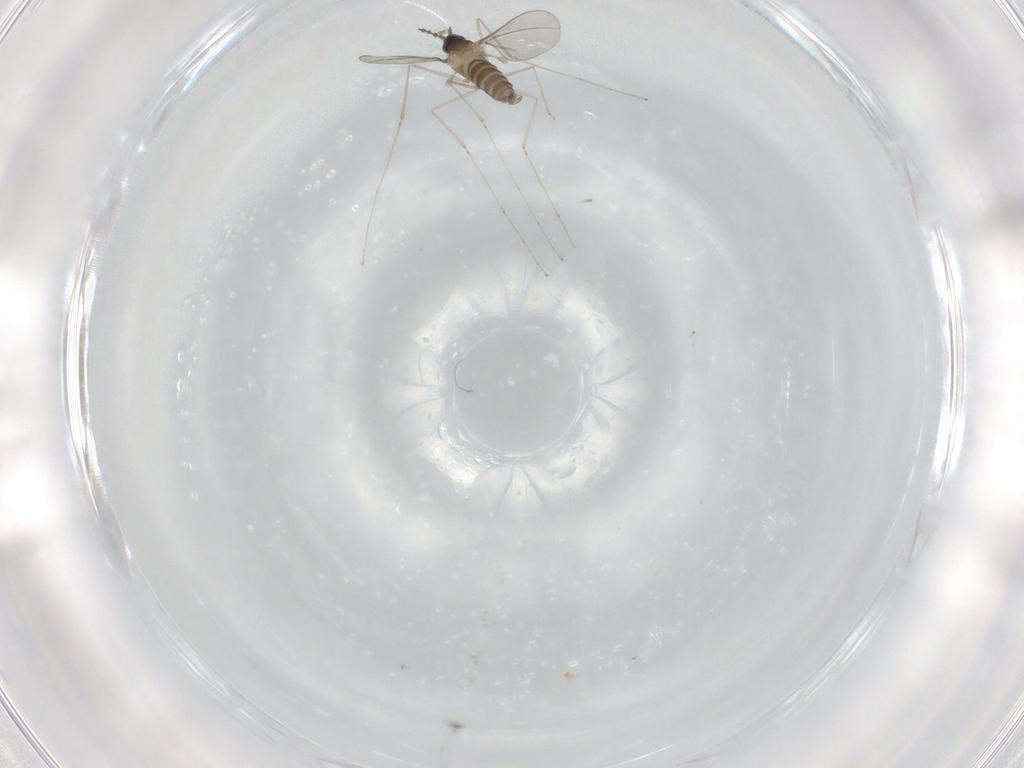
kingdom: Animalia
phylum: Arthropoda
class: Insecta
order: Diptera
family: Cecidomyiidae
